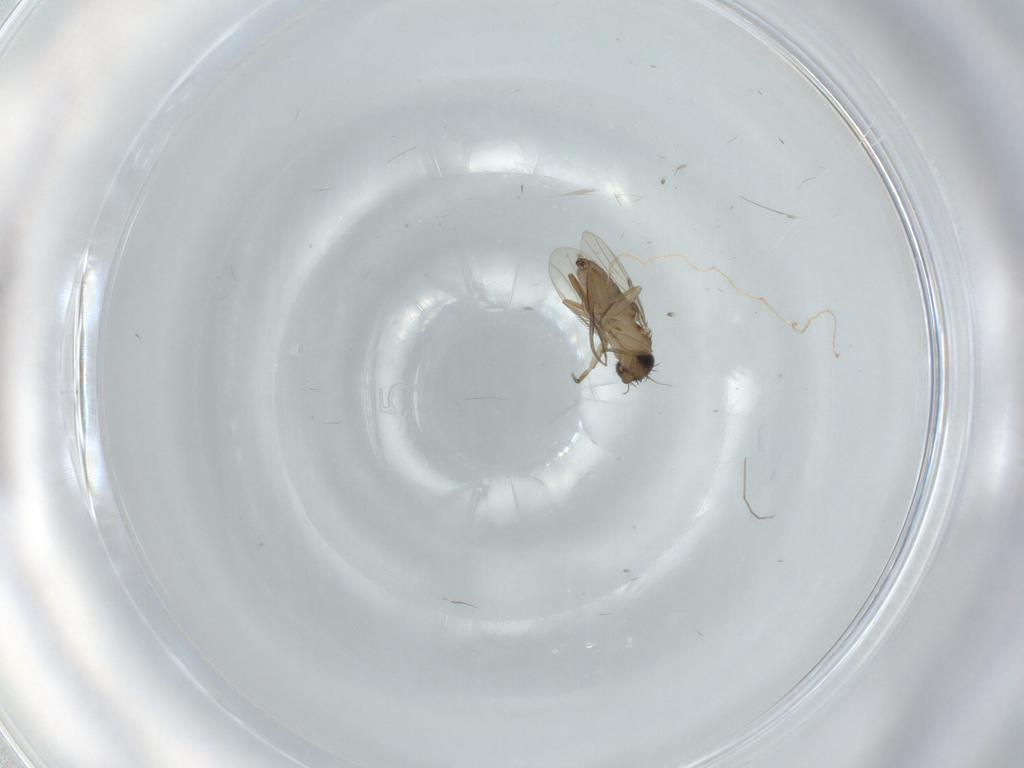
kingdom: Animalia
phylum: Arthropoda
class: Insecta
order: Diptera
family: Phoridae
